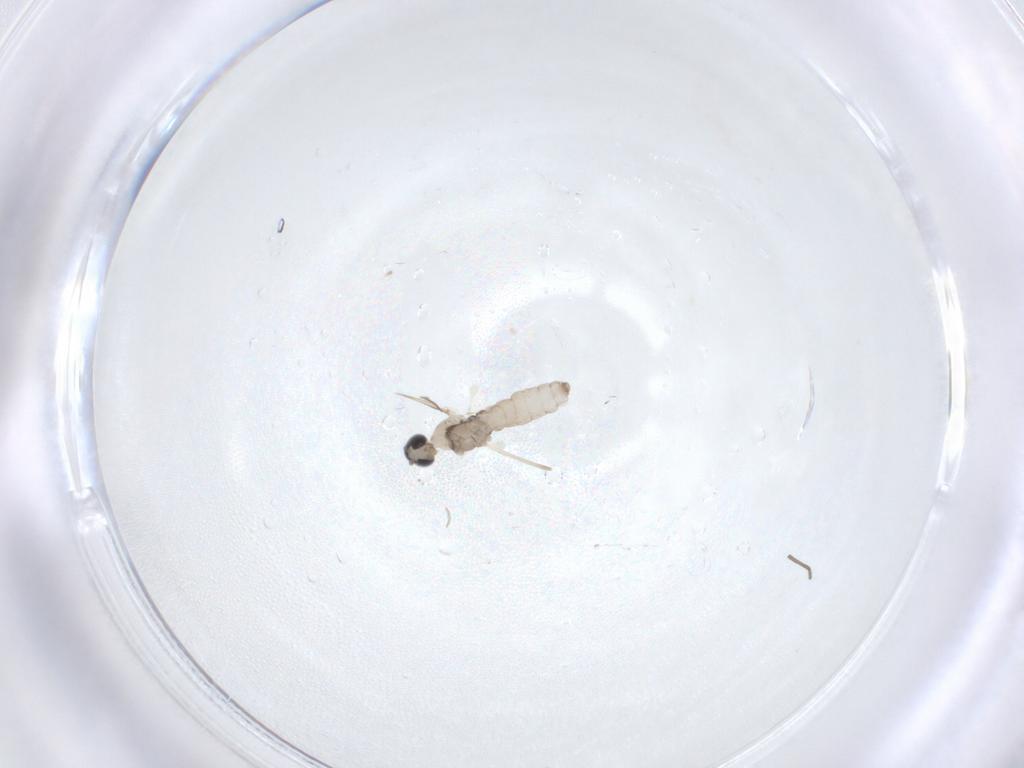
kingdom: Animalia
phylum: Arthropoda
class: Insecta
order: Diptera
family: Cecidomyiidae
